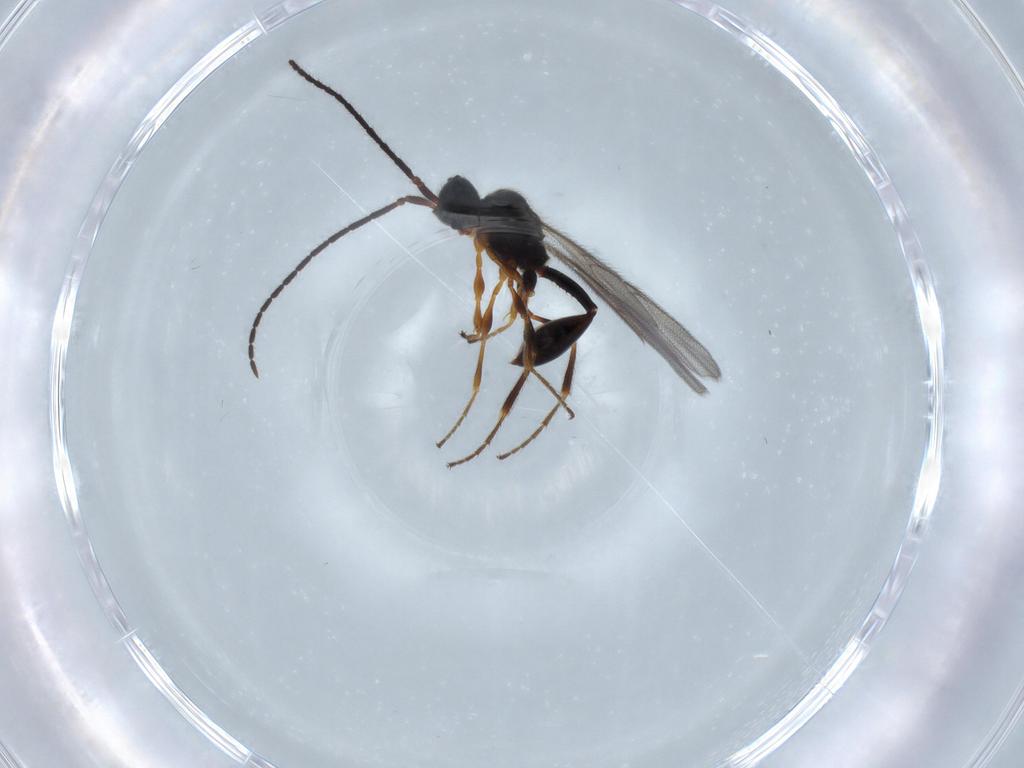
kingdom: Animalia
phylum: Arthropoda
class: Insecta
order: Hymenoptera
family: Diapriidae
